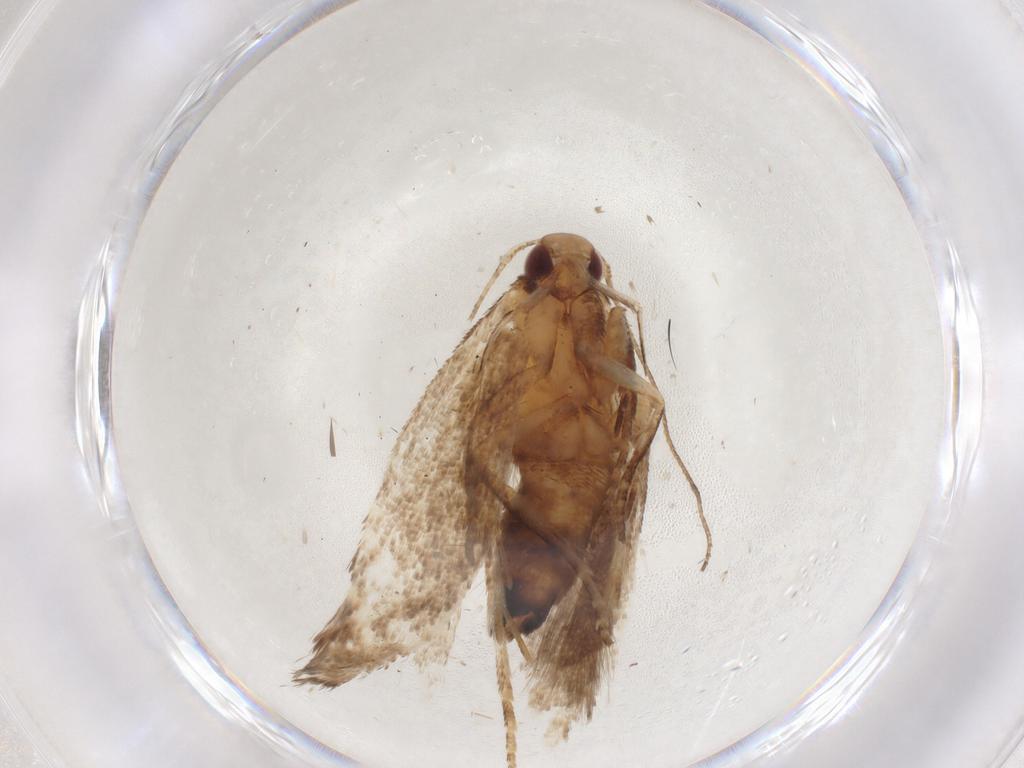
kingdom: Animalia
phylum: Arthropoda
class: Insecta
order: Lepidoptera
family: Gelechiidae
